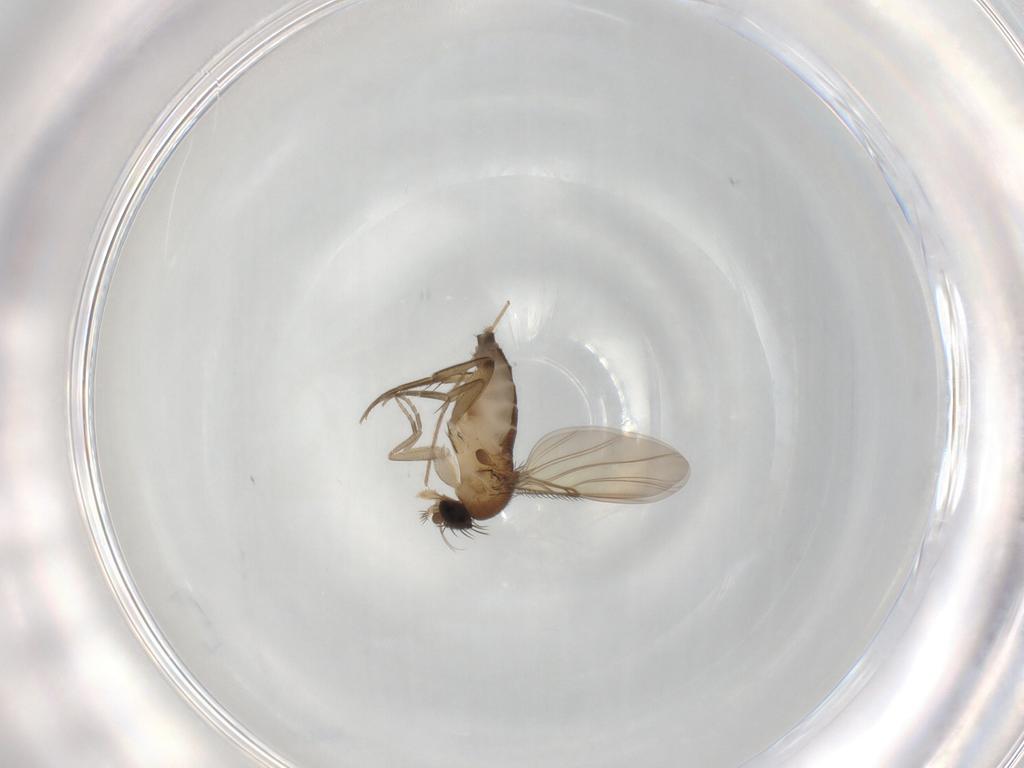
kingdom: Animalia
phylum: Arthropoda
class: Insecta
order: Diptera
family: Phoridae
